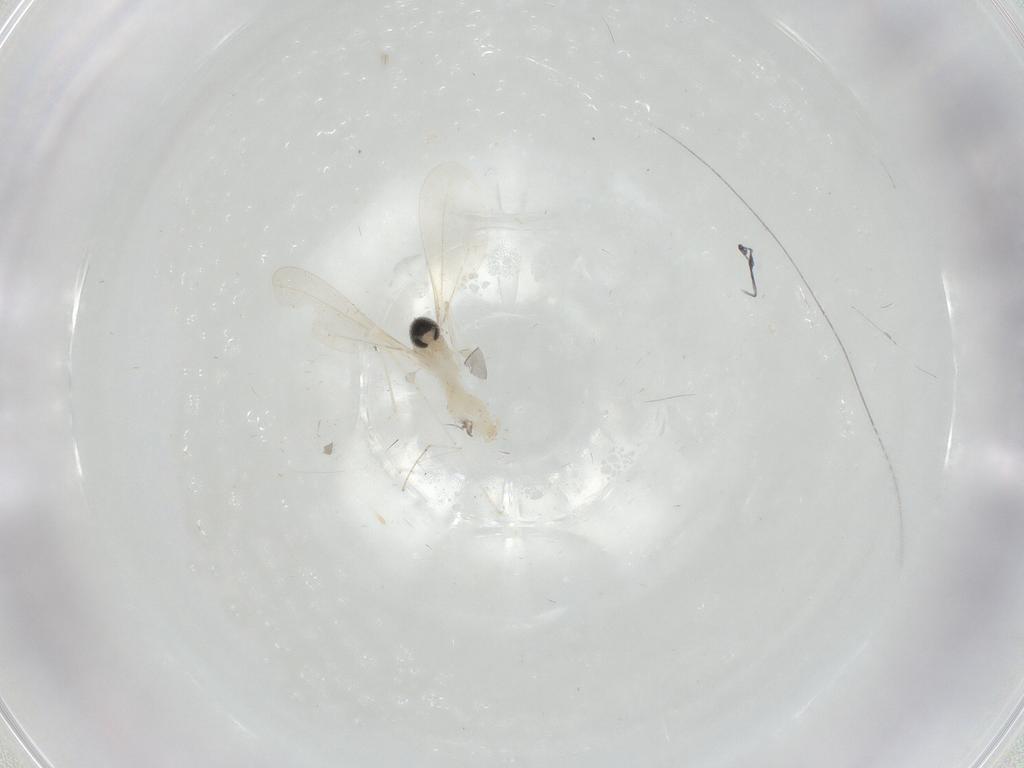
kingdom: Animalia
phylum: Arthropoda
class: Insecta
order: Diptera
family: Cecidomyiidae
